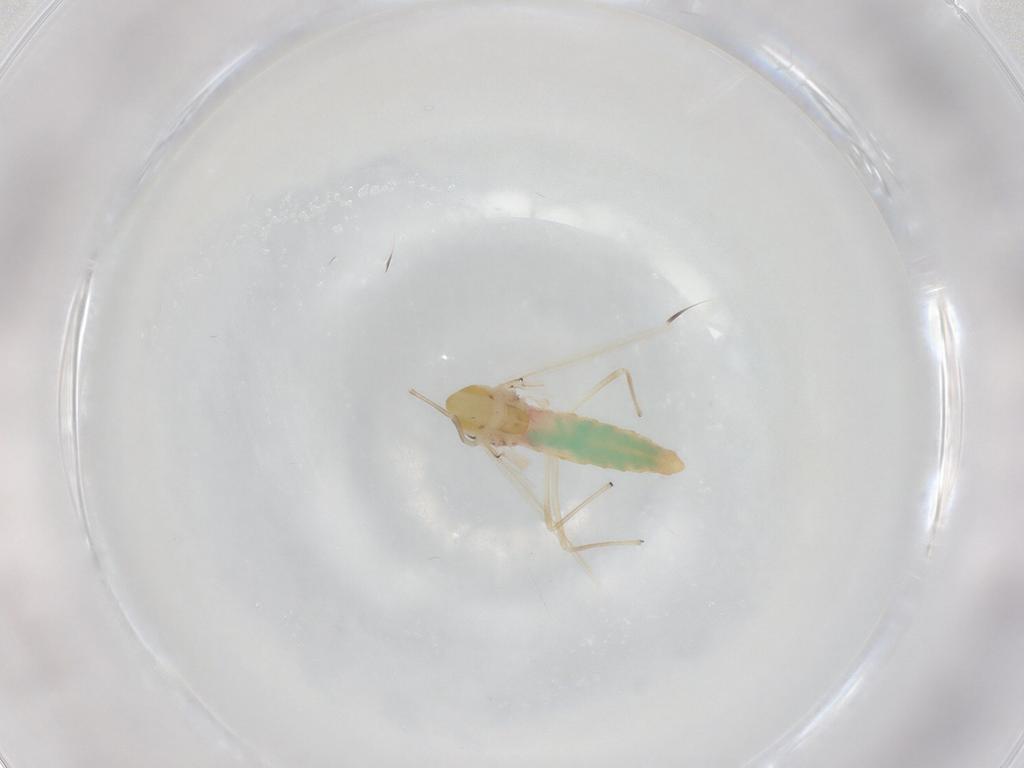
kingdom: Animalia
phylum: Arthropoda
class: Insecta
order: Diptera
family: Chironomidae
